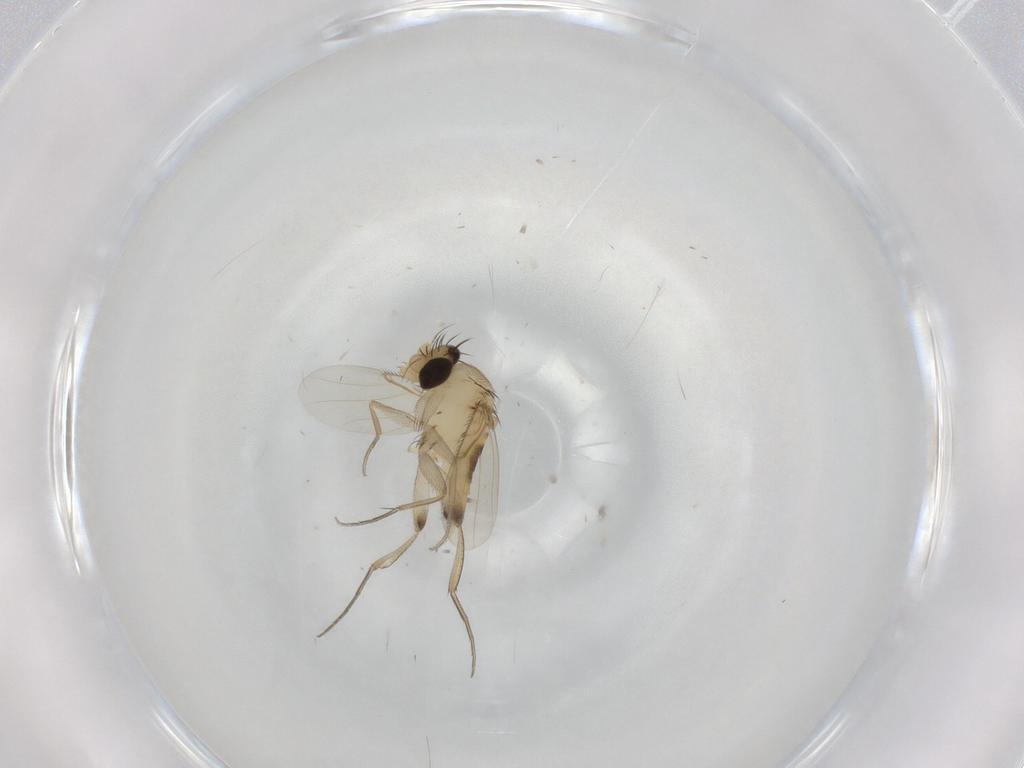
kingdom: Animalia
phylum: Arthropoda
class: Insecta
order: Diptera
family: Phoridae
